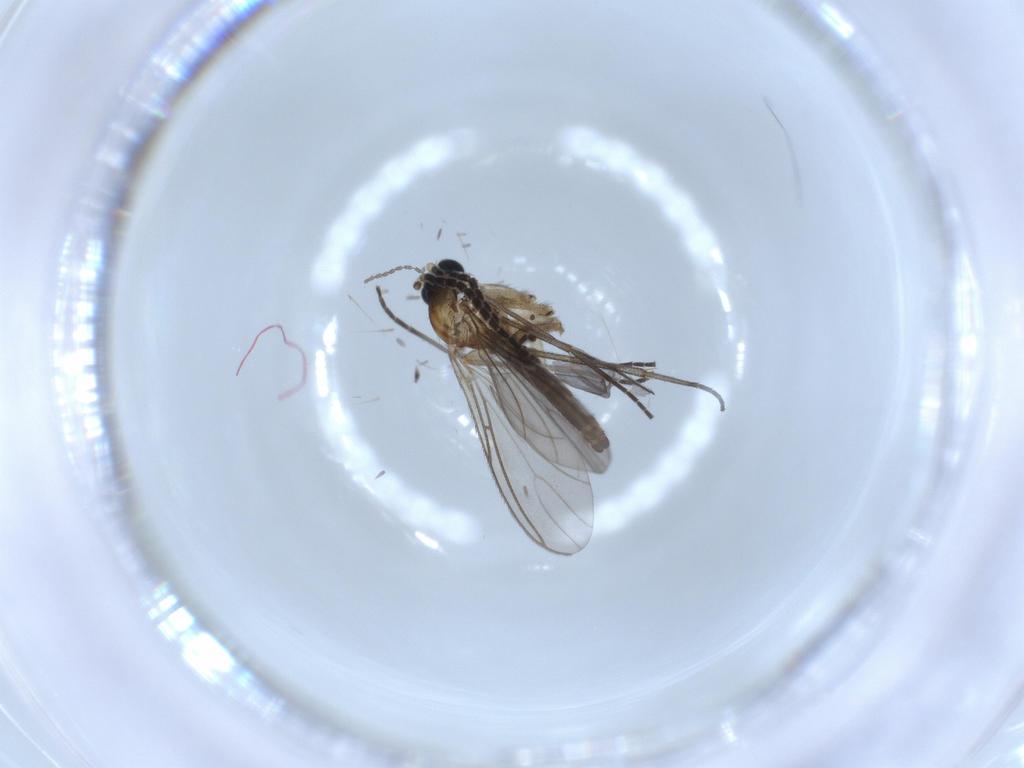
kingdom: Animalia
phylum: Arthropoda
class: Insecta
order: Diptera
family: Sciaridae
